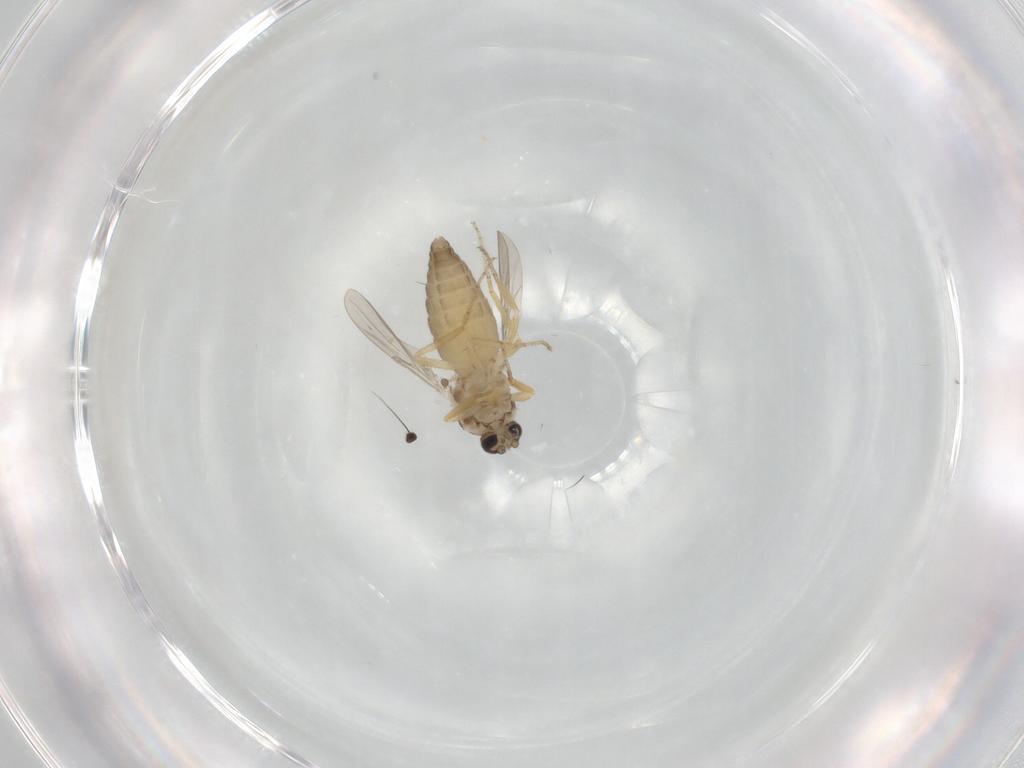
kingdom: Animalia
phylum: Arthropoda
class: Insecta
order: Diptera
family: Ceratopogonidae
